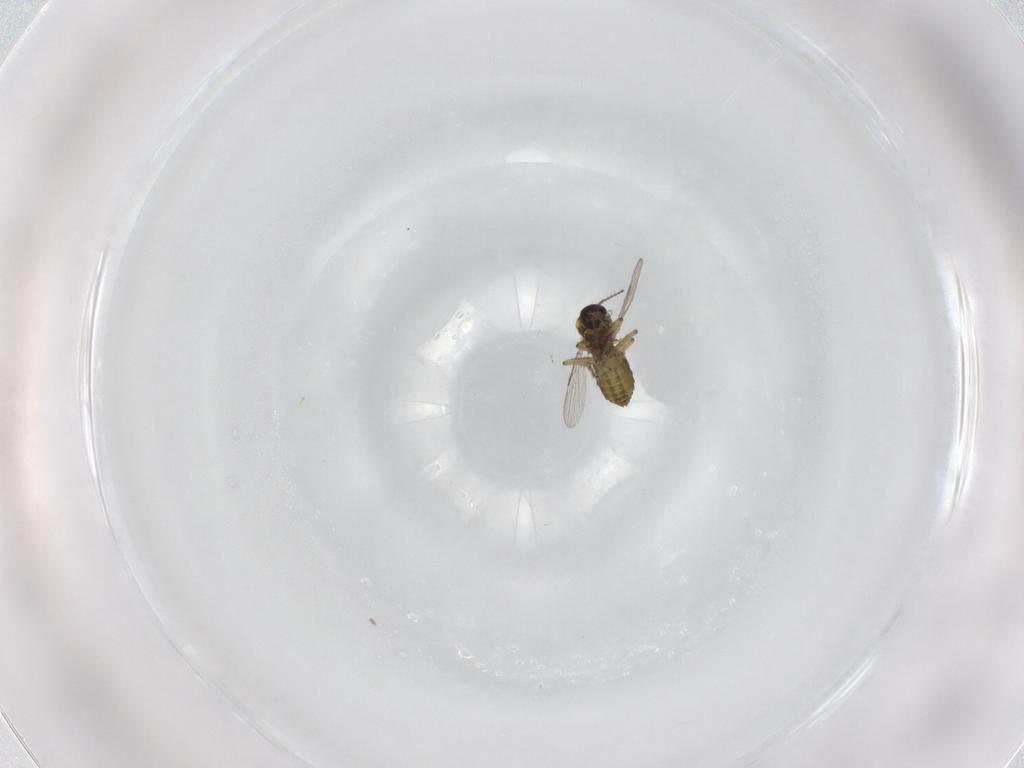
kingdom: Animalia
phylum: Arthropoda
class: Insecta
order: Diptera
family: Ceratopogonidae
